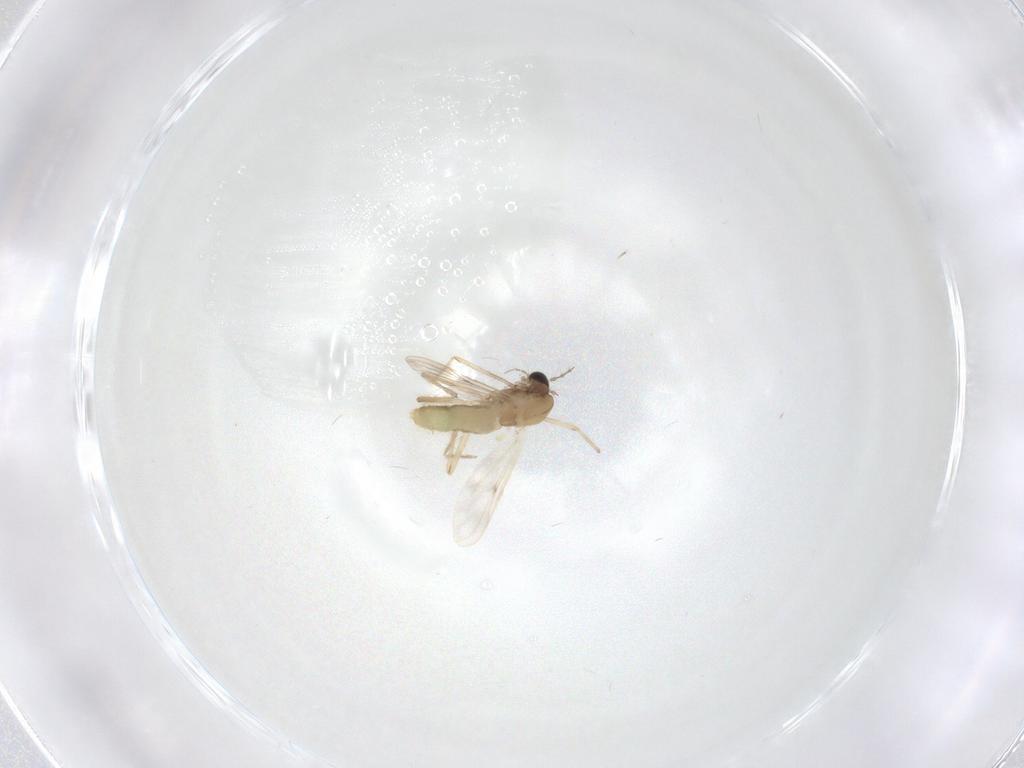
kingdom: Animalia
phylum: Arthropoda
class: Insecta
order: Diptera
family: Chironomidae
